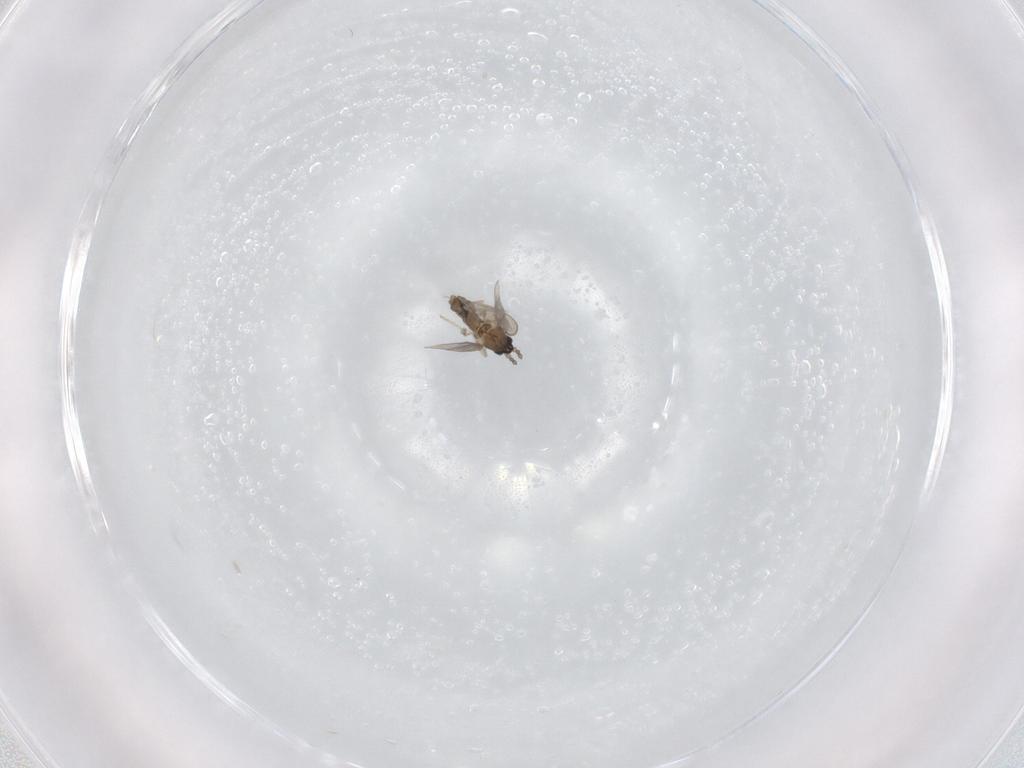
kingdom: Animalia
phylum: Arthropoda
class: Insecta
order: Diptera
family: Cecidomyiidae
